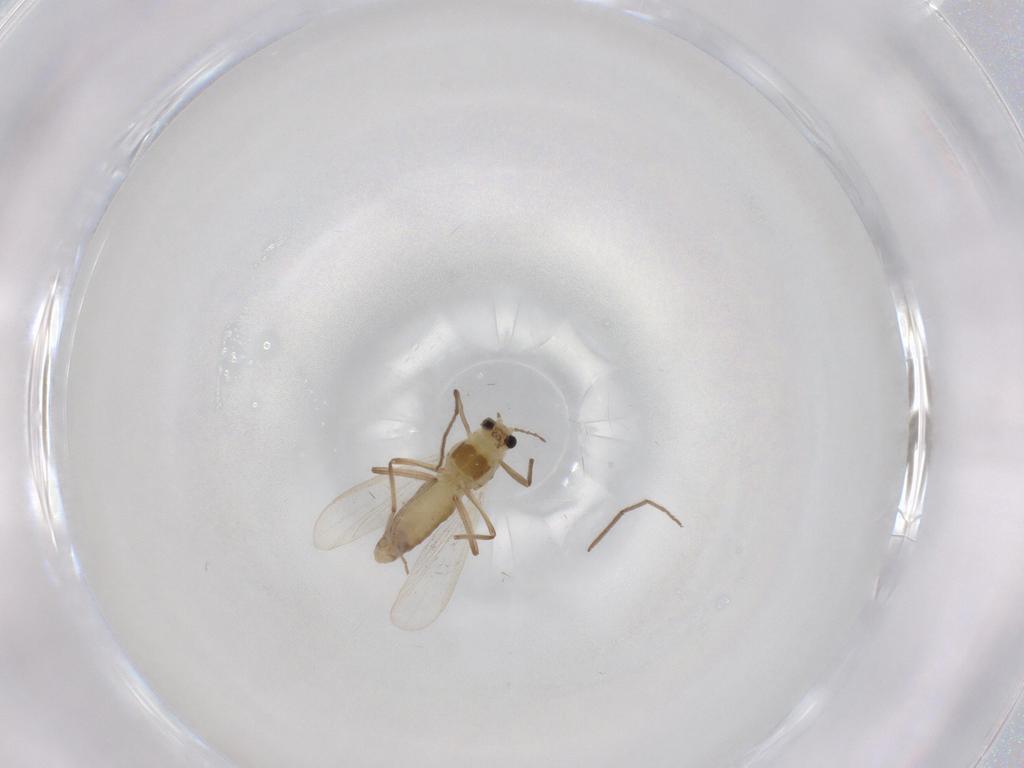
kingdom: Animalia
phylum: Arthropoda
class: Insecta
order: Diptera
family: Chironomidae
